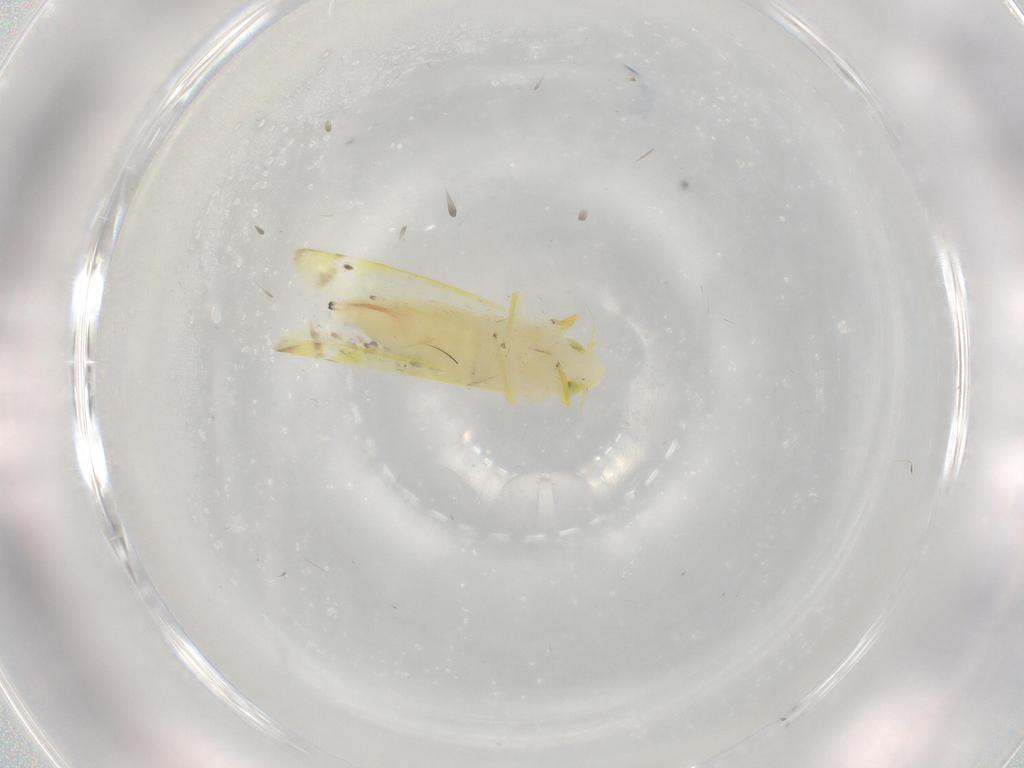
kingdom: Animalia
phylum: Arthropoda
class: Insecta
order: Hemiptera
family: Cicadellidae
